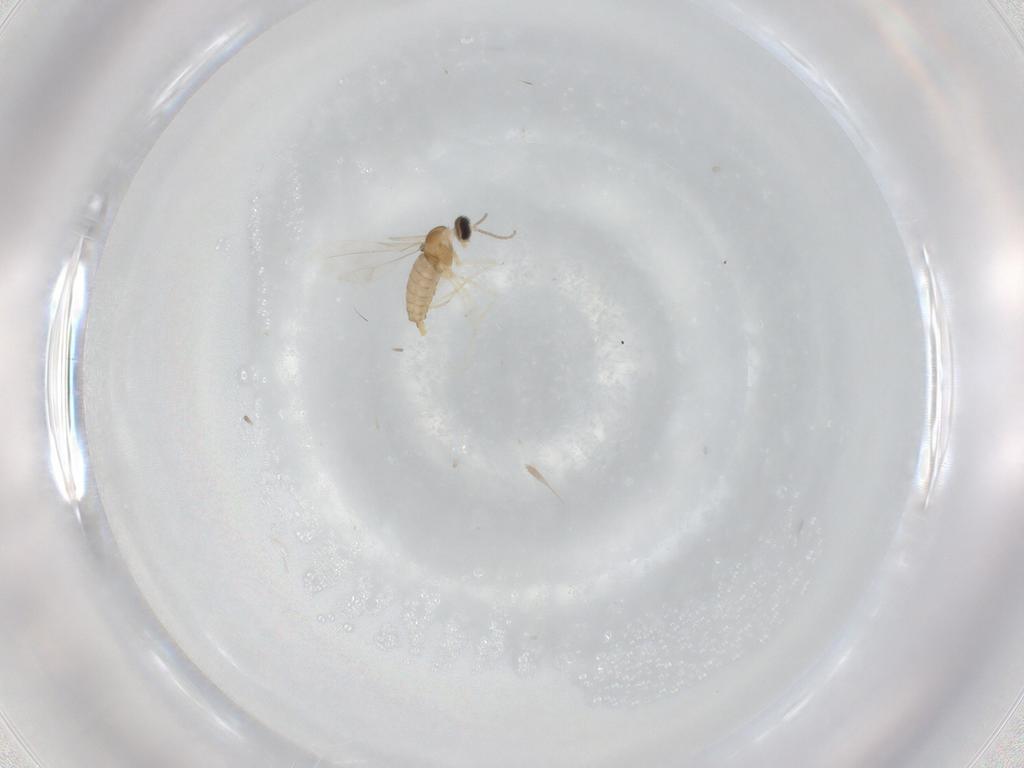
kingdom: Animalia
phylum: Arthropoda
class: Insecta
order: Diptera
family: Cecidomyiidae
